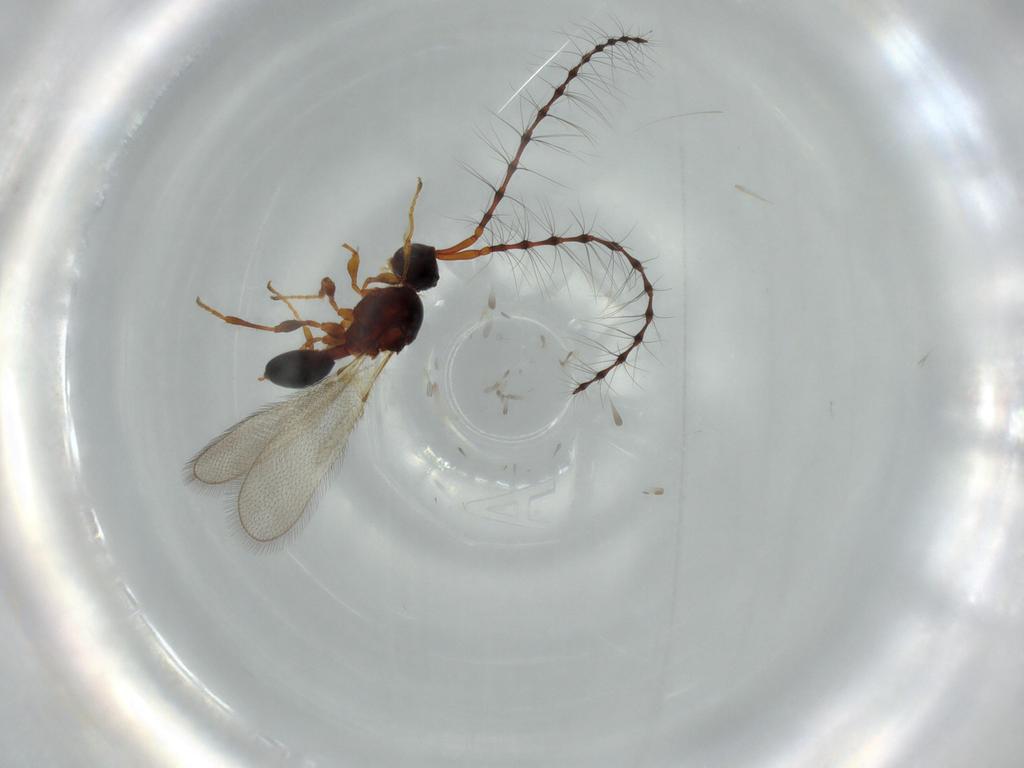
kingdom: Animalia
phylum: Arthropoda
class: Insecta
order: Hymenoptera
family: Diapriidae
